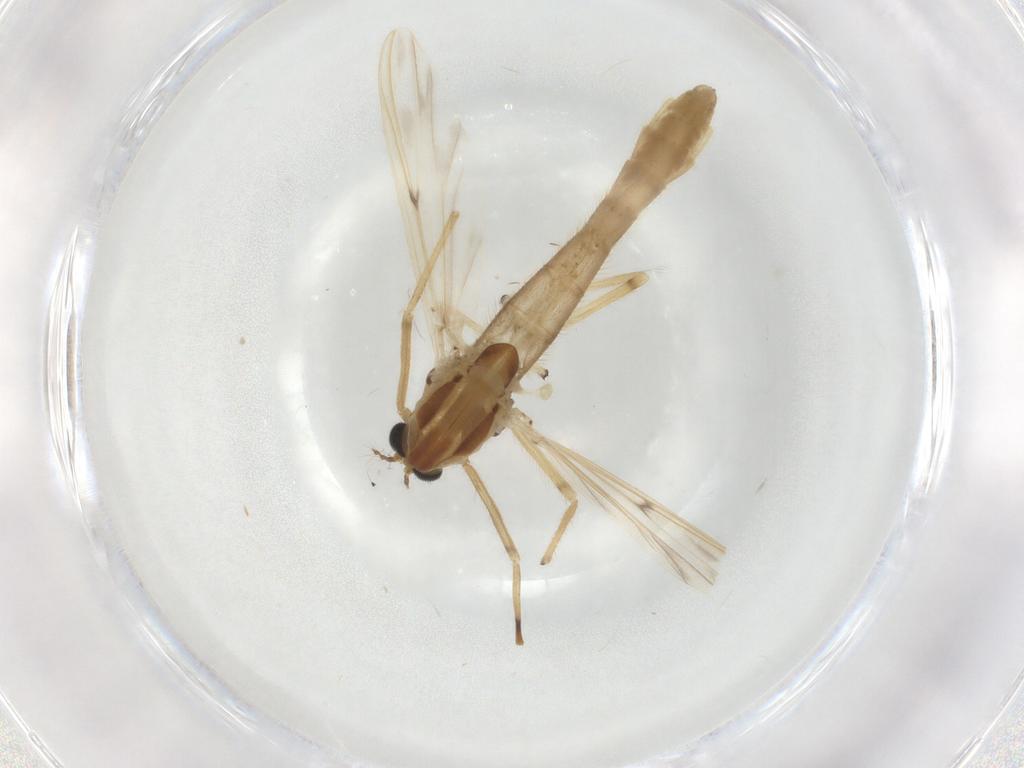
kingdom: Animalia
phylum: Arthropoda
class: Insecta
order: Diptera
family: Chironomidae
